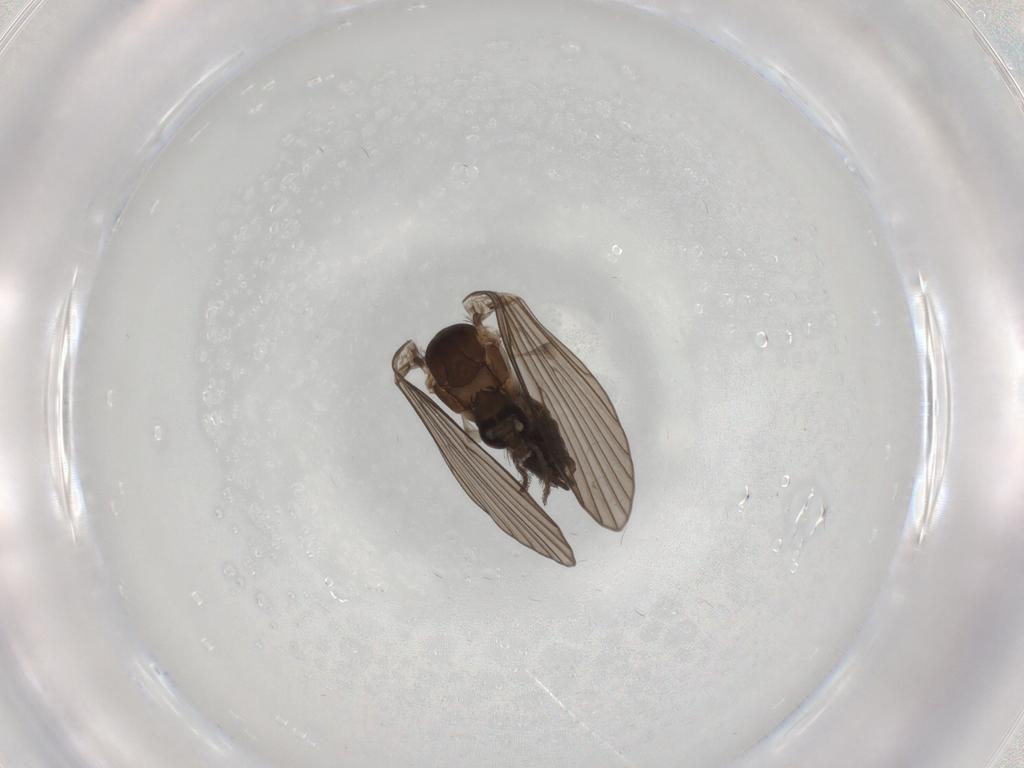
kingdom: Animalia
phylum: Arthropoda
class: Insecta
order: Diptera
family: Psychodidae
